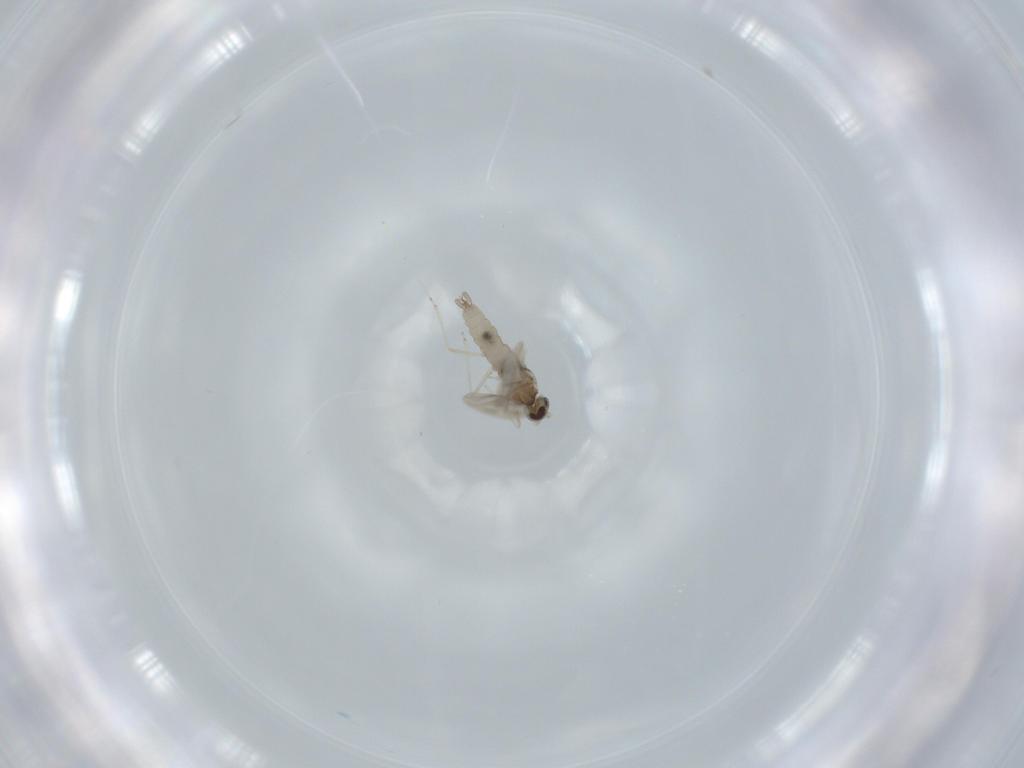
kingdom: Animalia
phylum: Arthropoda
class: Insecta
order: Diptera
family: Cecidomyiidae
